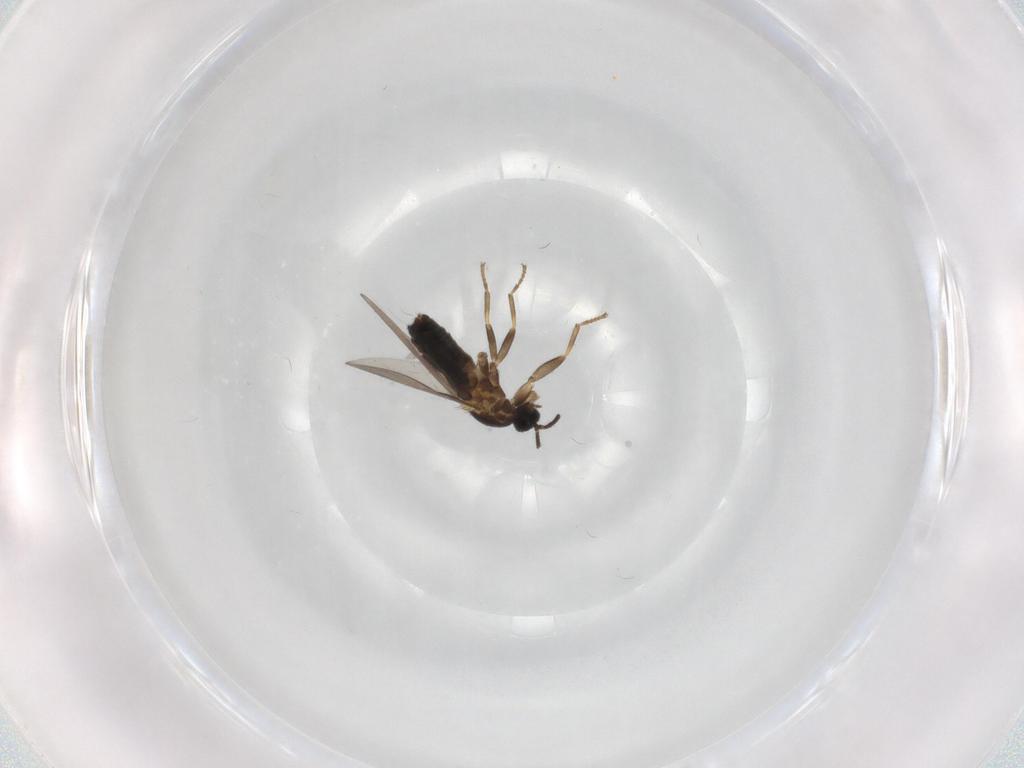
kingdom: Animalia
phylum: Arthropoda
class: Insecta
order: Diptera
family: Scatopsidae
